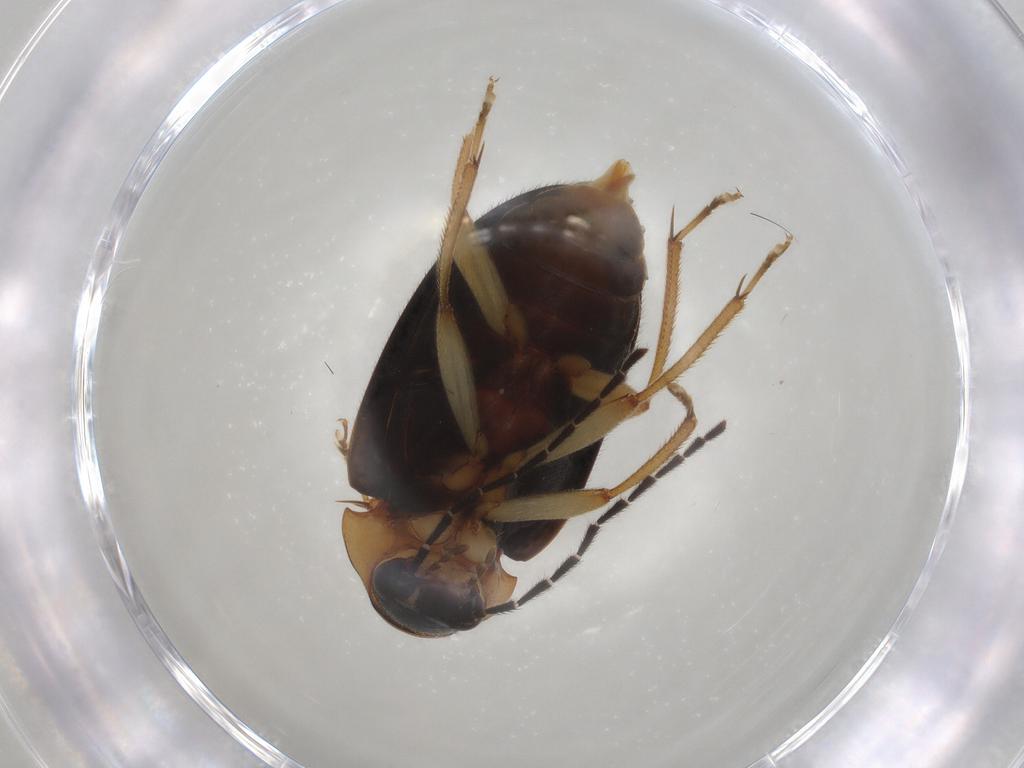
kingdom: Animalia
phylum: Arthropoda
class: Insecta
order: Coleoptera
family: Ptilodactylidae
